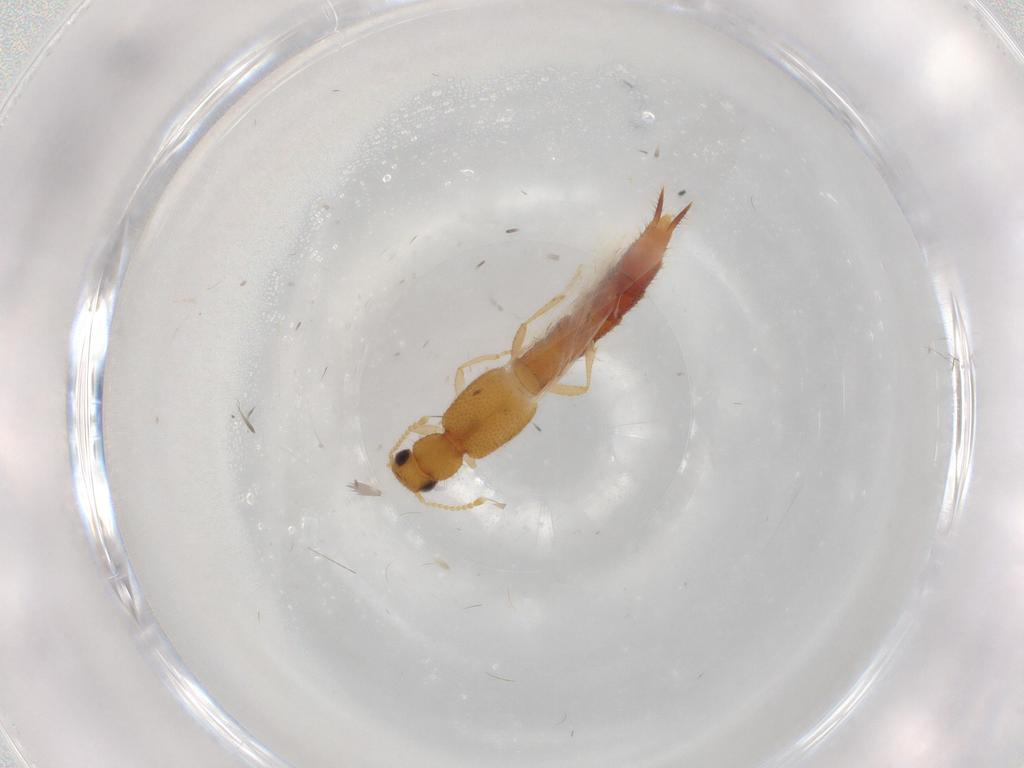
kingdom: Animalia
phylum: Arthropoda
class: Insecta
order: Coleoptera
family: Staphylinidae
